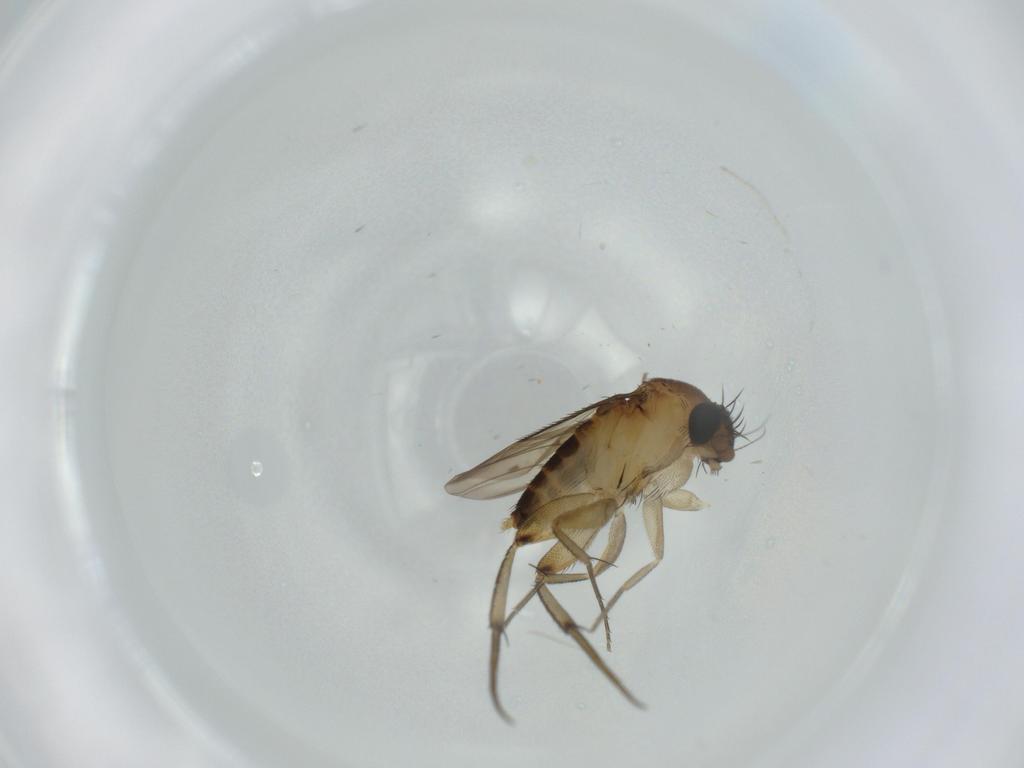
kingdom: Animalia
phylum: Arthropoda
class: Insecta
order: Diptera
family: Phoridae
